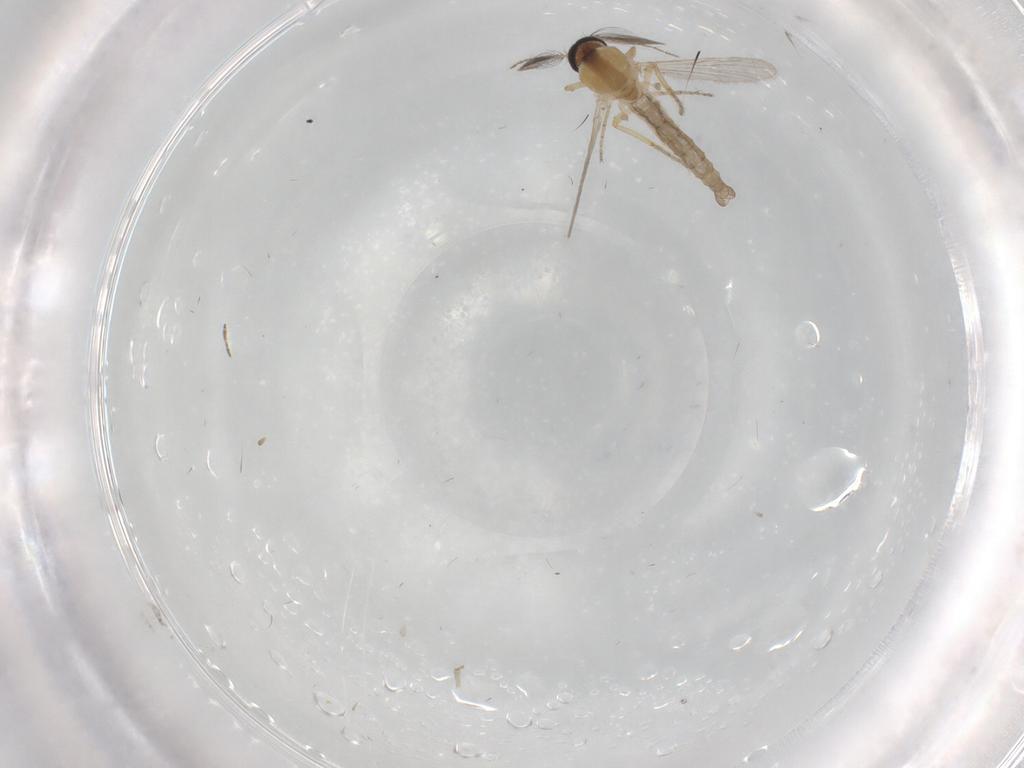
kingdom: Animalia
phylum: Arthropoda
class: Insecta
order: Diptera
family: Ceratopogonidae
